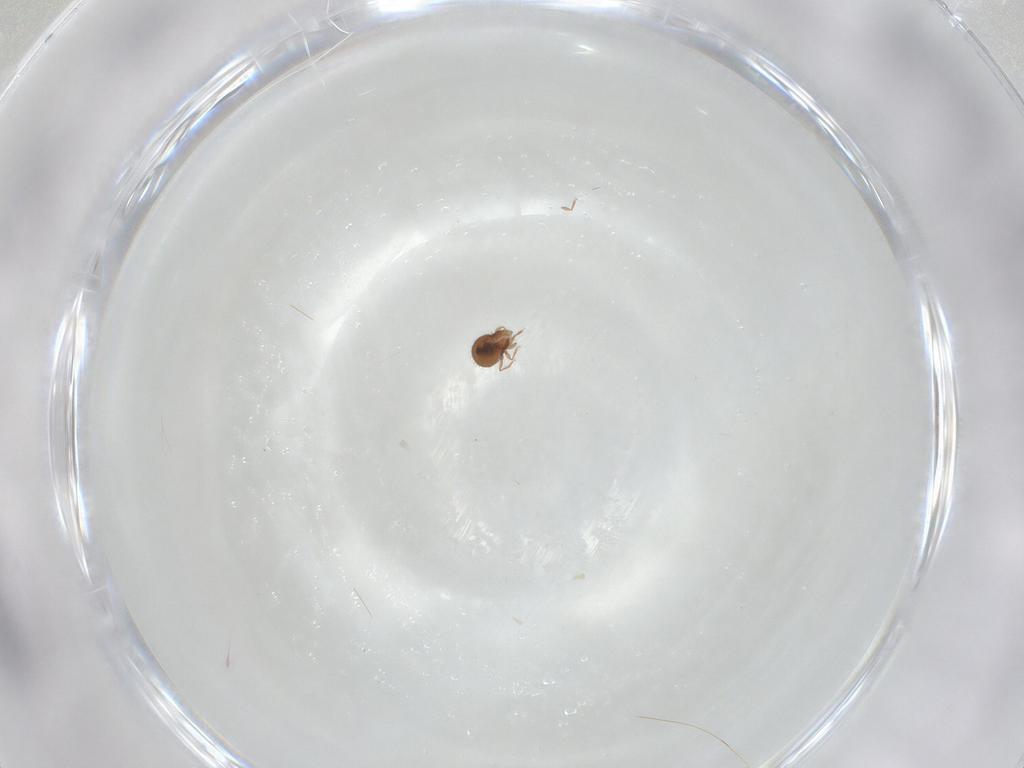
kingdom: Animalia
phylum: Arthropoda
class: Arachnida
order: Sarcoptiformes
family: Oribatulidae
